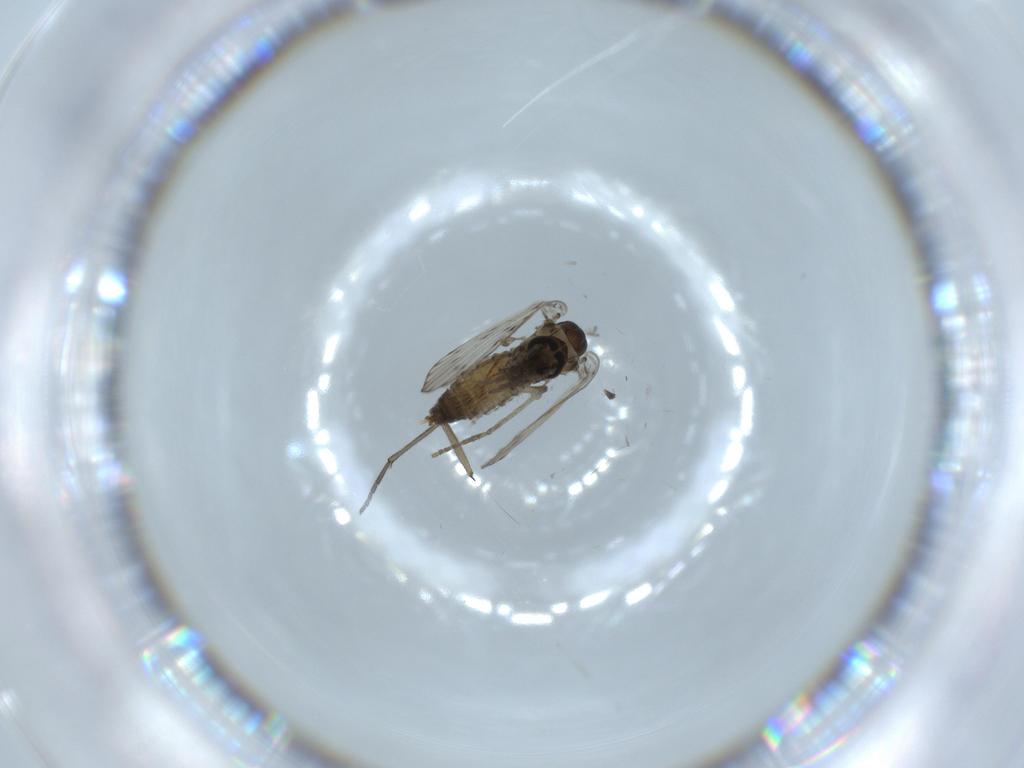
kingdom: Animalia
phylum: Arthropoda
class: Insecta
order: Diptera
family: Psychodidae
